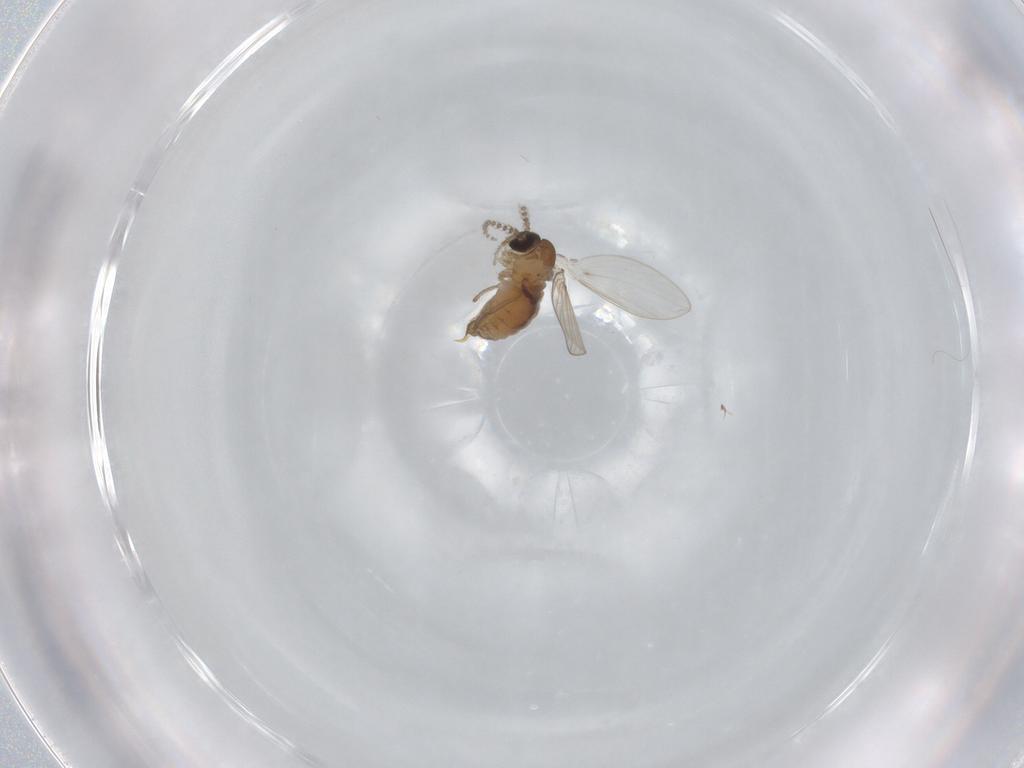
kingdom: Animalia
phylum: Arthropoda
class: Insecta
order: Diptera
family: Psychodidae
